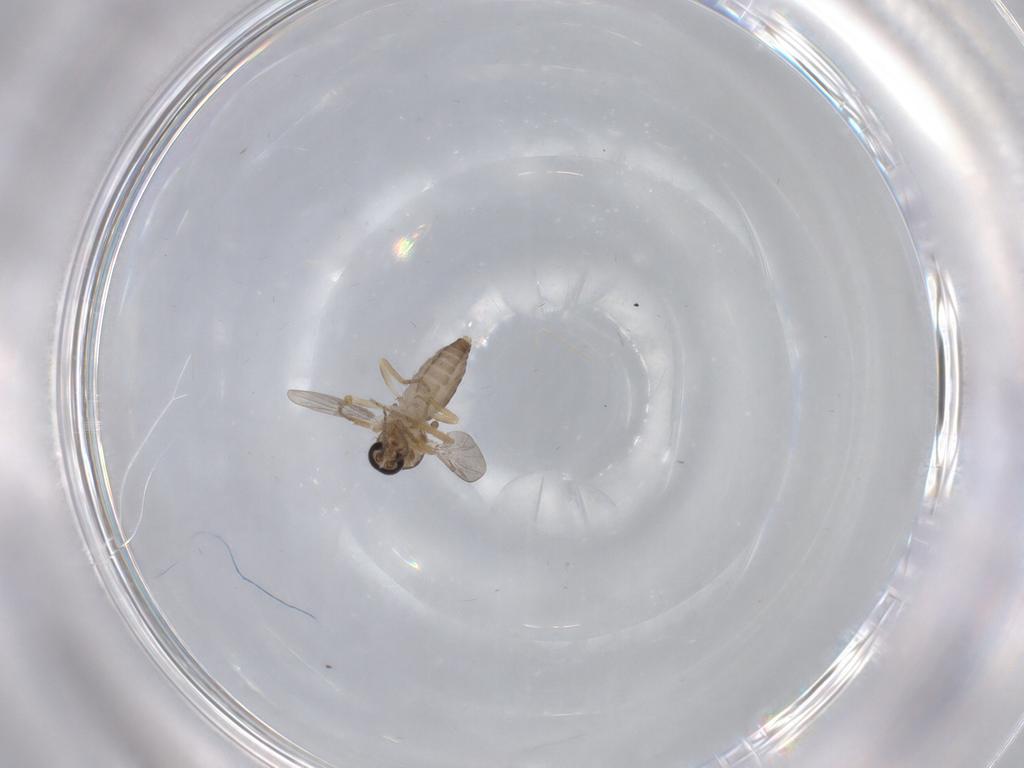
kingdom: Animalia
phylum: Arthropoda
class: Insecta
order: Diptera
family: Ceratopogonidae
